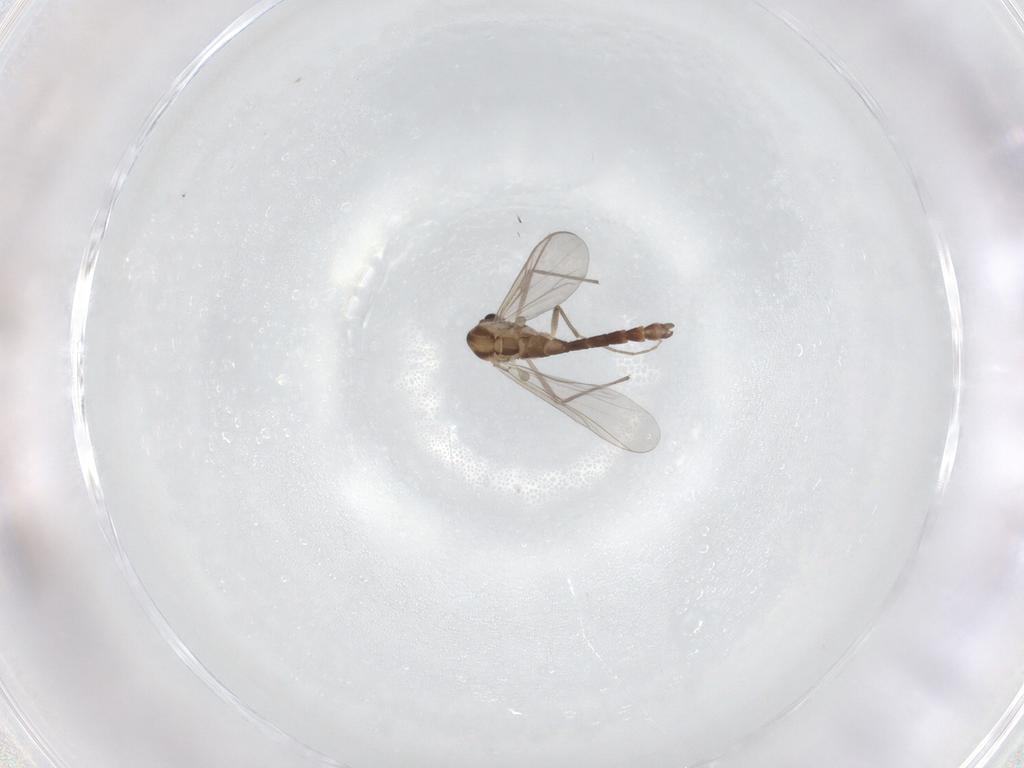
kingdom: Animalia
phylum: Arthropoda
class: Insecta
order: Diptera
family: Chironomidae
